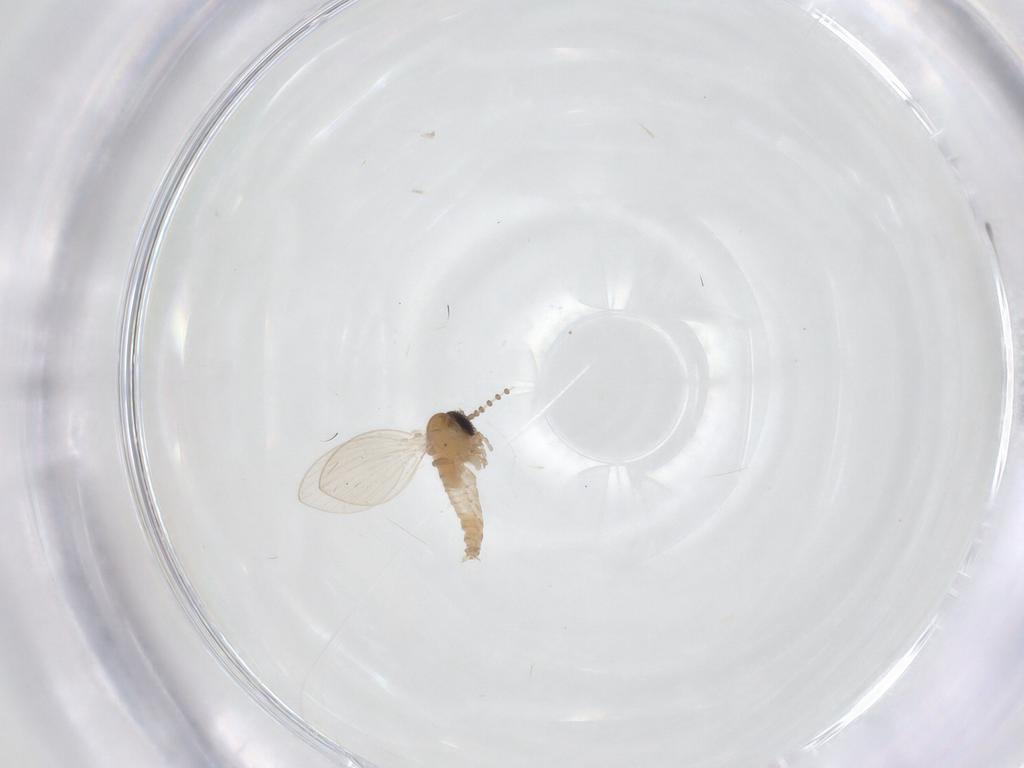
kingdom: Animalia
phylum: Arthropoda
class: Insecta
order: Diptera
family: Psychodidae
